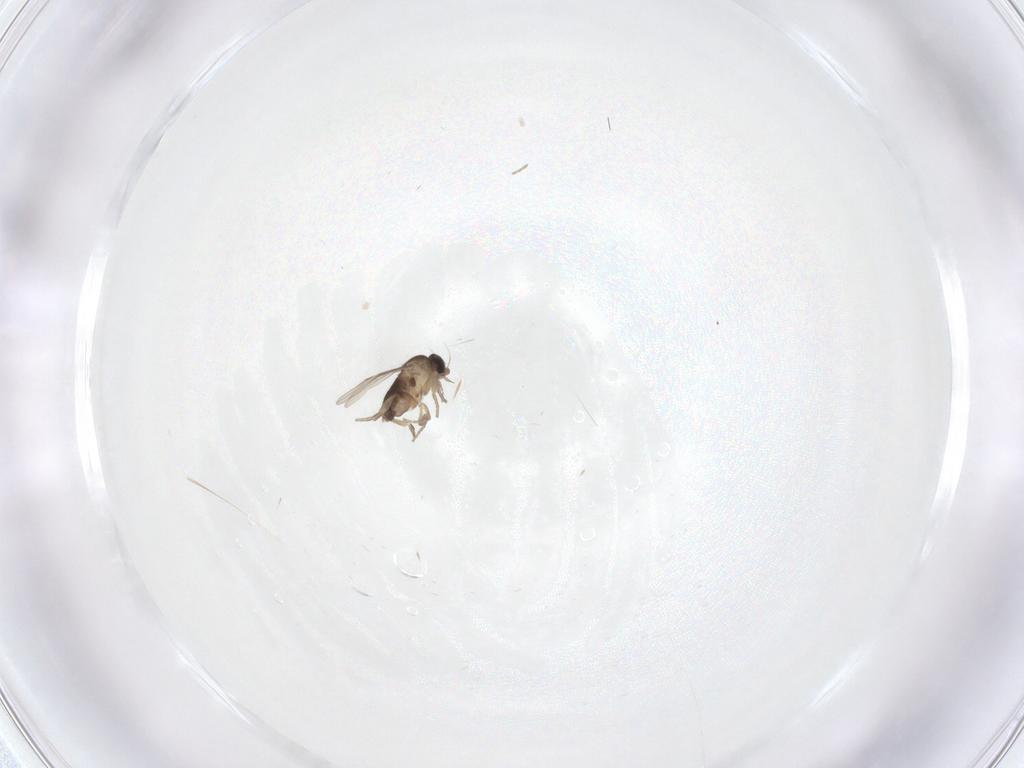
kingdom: Animalia
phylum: Arthropoda
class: Insecta
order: Diptera
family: Phoridae
